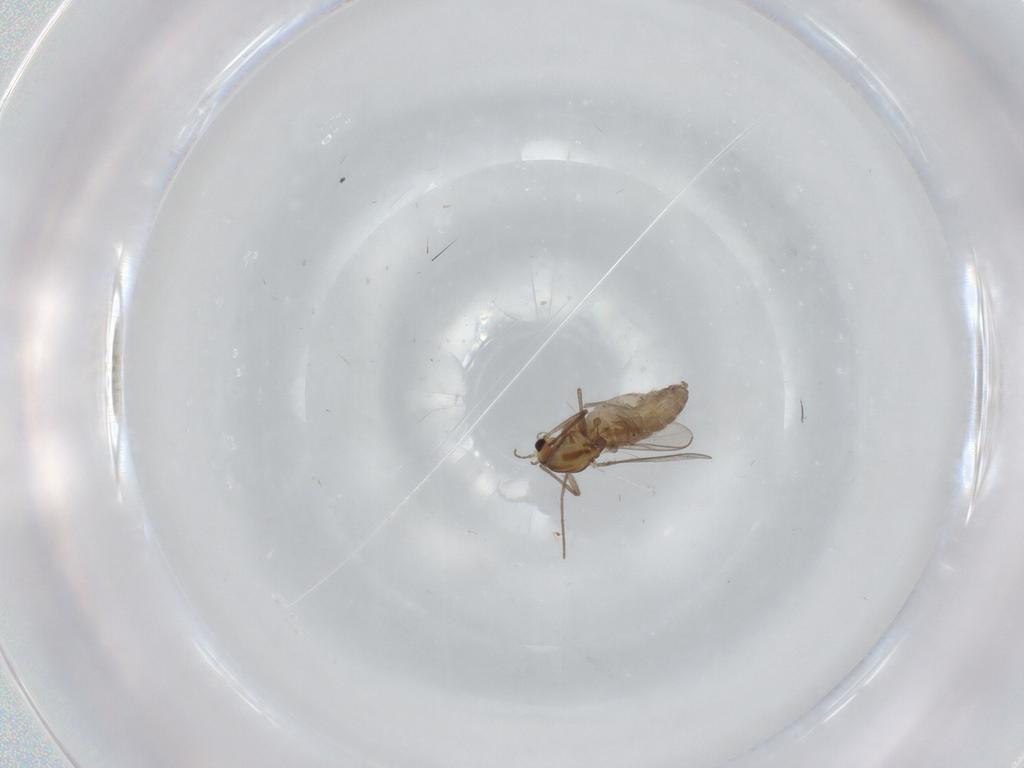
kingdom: Animalia
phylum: Arthropoda
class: Insecta
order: Diptera
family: Chironomidae
